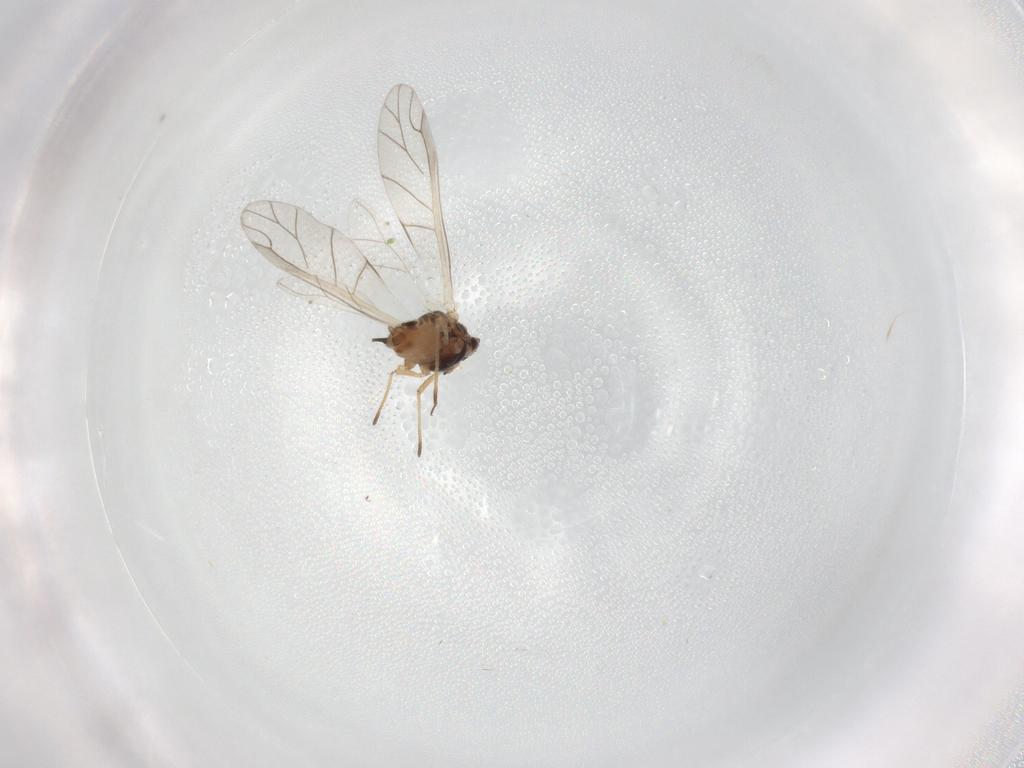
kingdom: Animalia
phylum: Arthropoda
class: Insecta
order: Hemiptera
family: Aphididae
